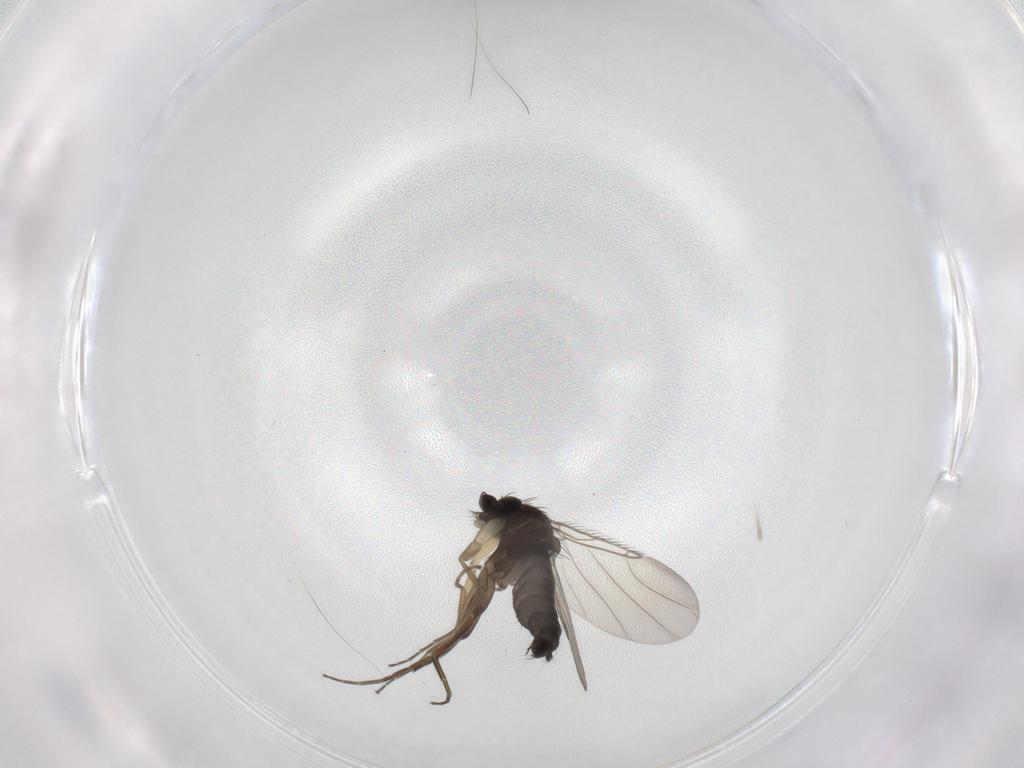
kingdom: Animalia
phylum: Arthropoda
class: Insecta
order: Diptera
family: Phoridae
